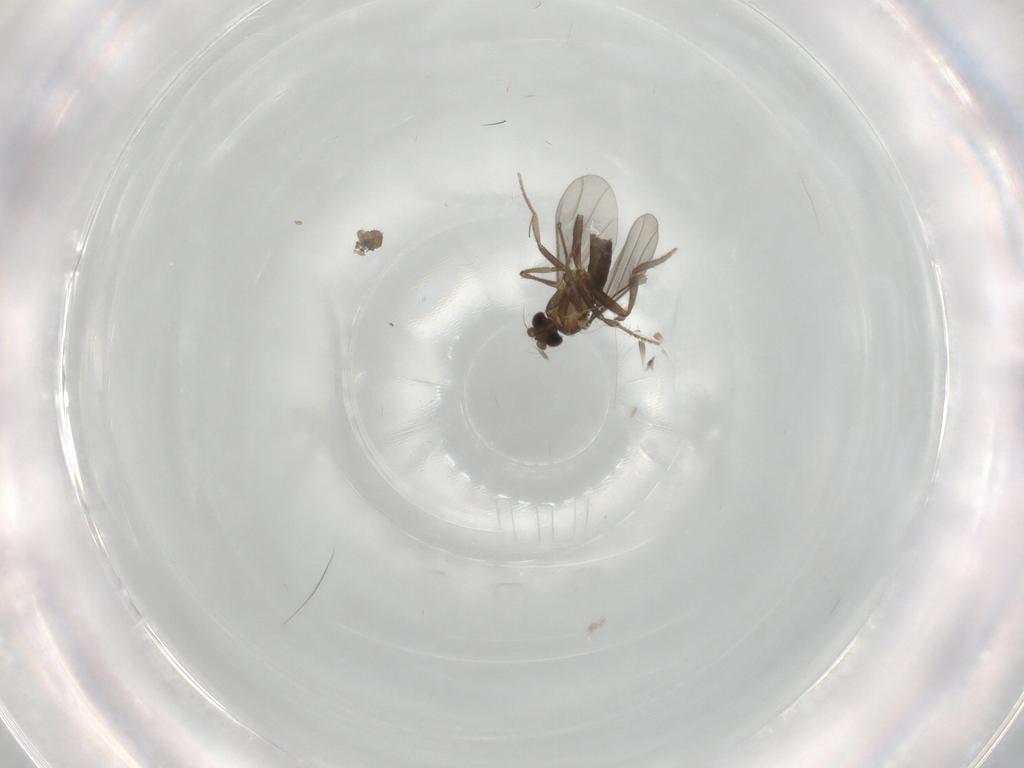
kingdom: Animalia
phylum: Arthropoda
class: Insecta
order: Diptera
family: Phoridae
